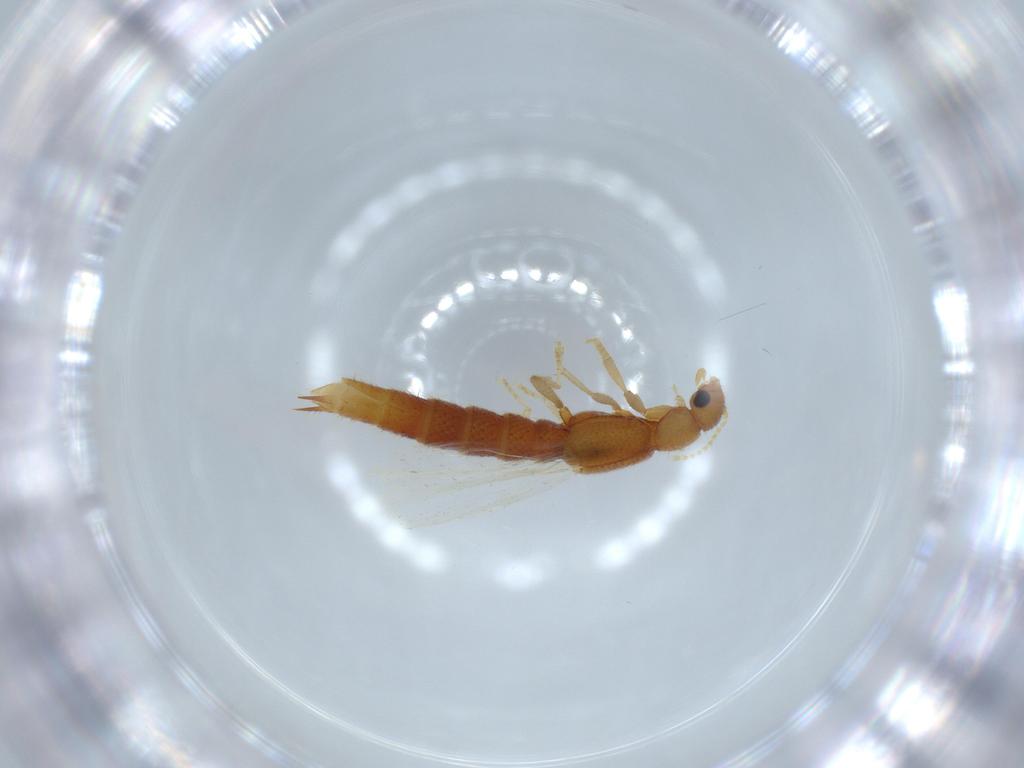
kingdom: Animalia
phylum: Arthropoda
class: Insecta
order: Coleoptera
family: Staphylinidae
